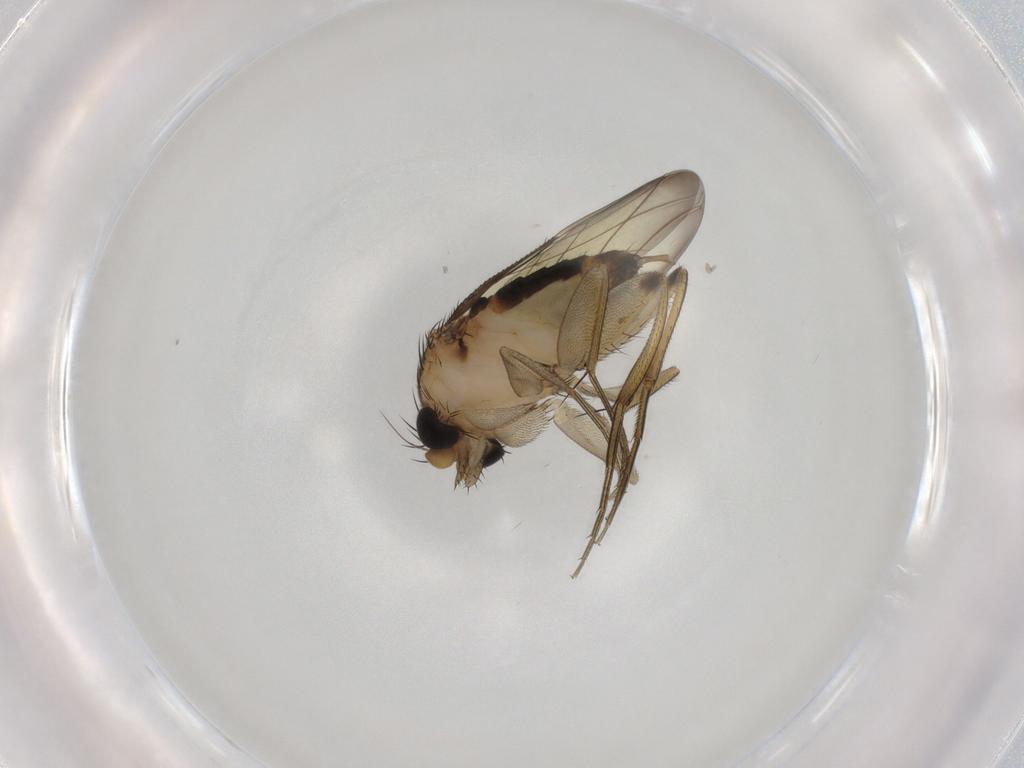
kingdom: Animalia
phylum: Arthropoda
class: Insecta
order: Diptera
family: Phoridae
